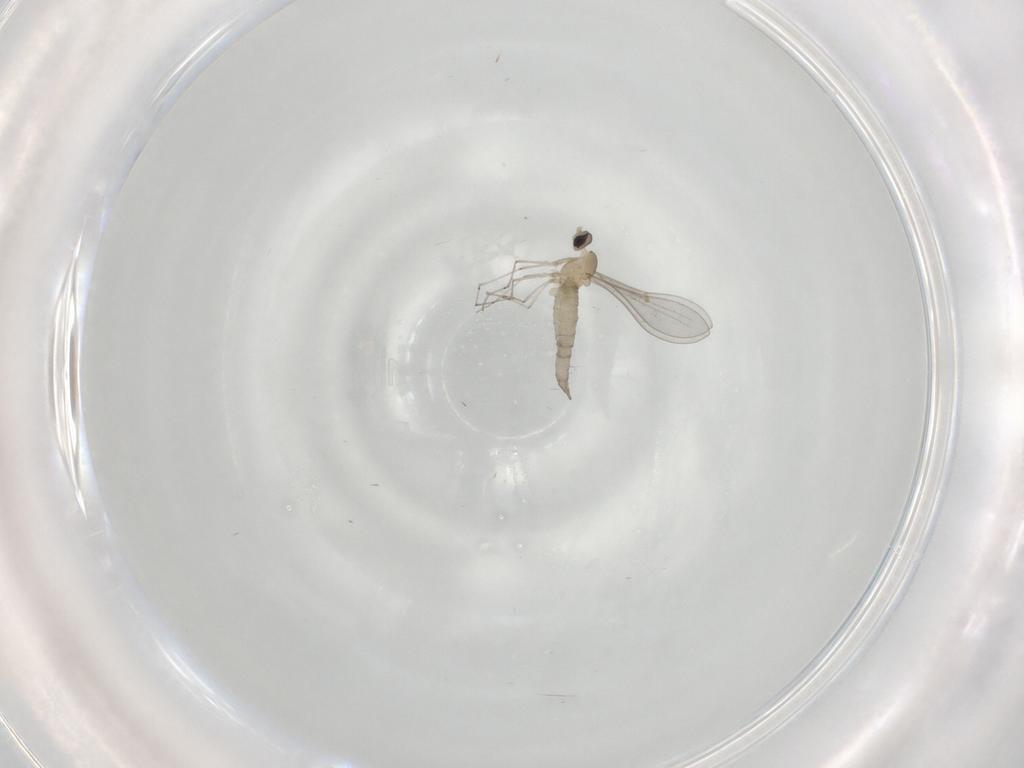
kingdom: Animalia
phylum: Arthropoda
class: Insecta
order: Diptera
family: Cecidomyiidae
